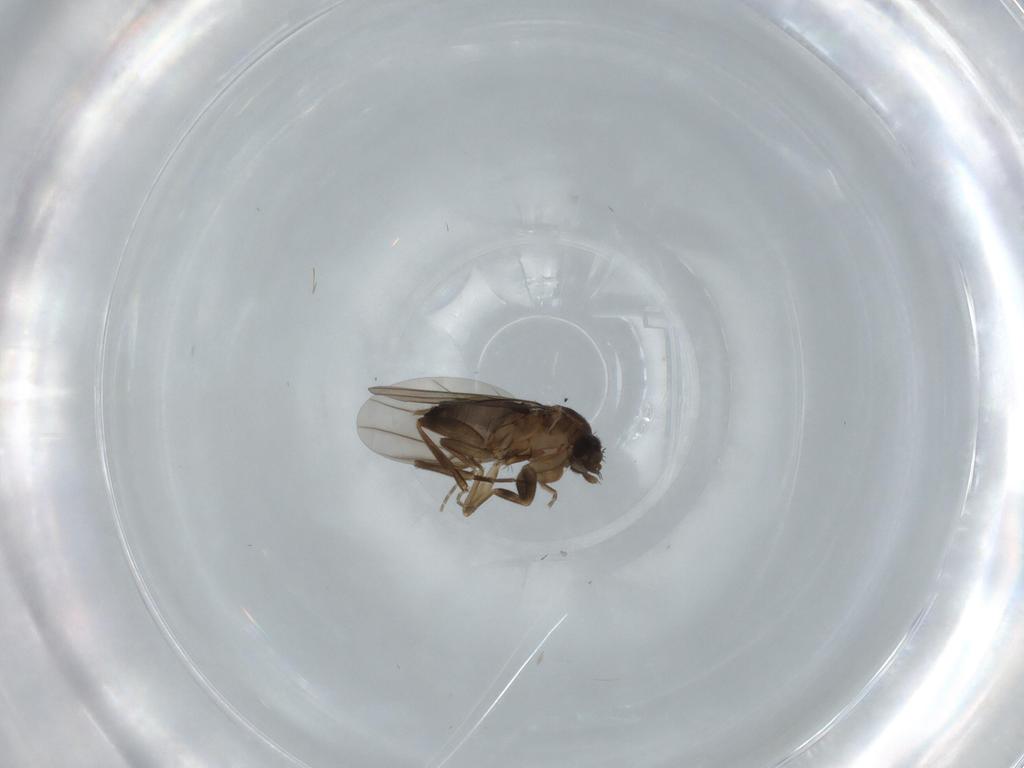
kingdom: Animalia
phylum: Arthropoda
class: Insecta
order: Diptera
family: Phoridae
